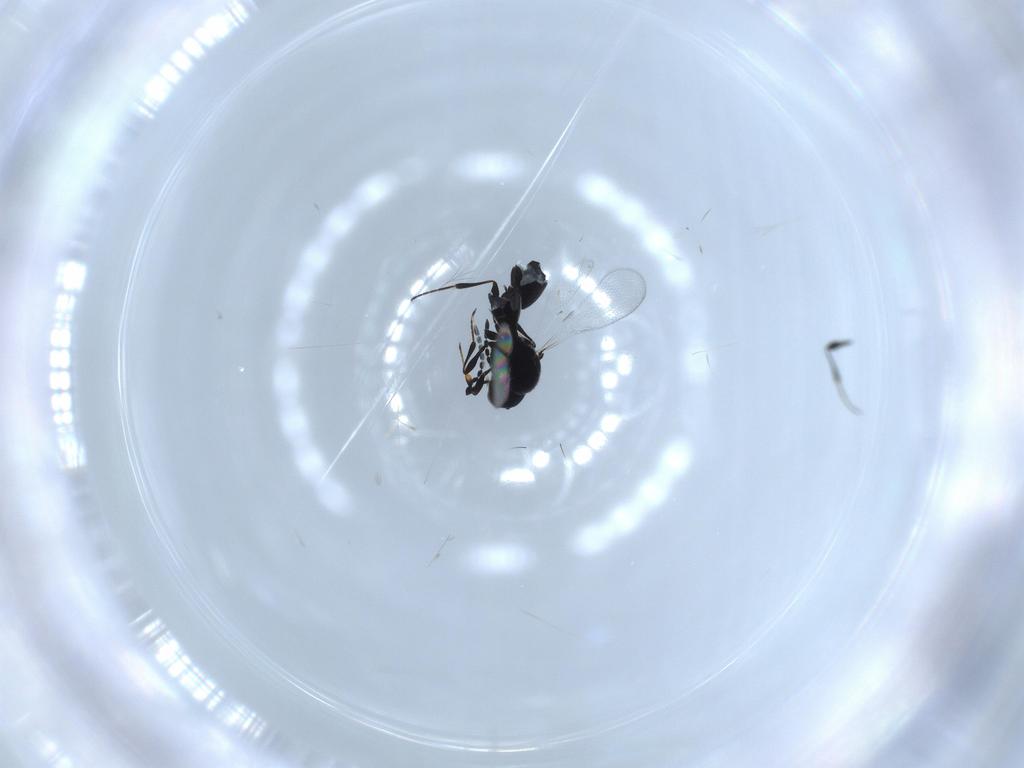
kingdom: Animalia
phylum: Arthropoda
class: Insecta
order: Hymenoptera
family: Platygastridae
